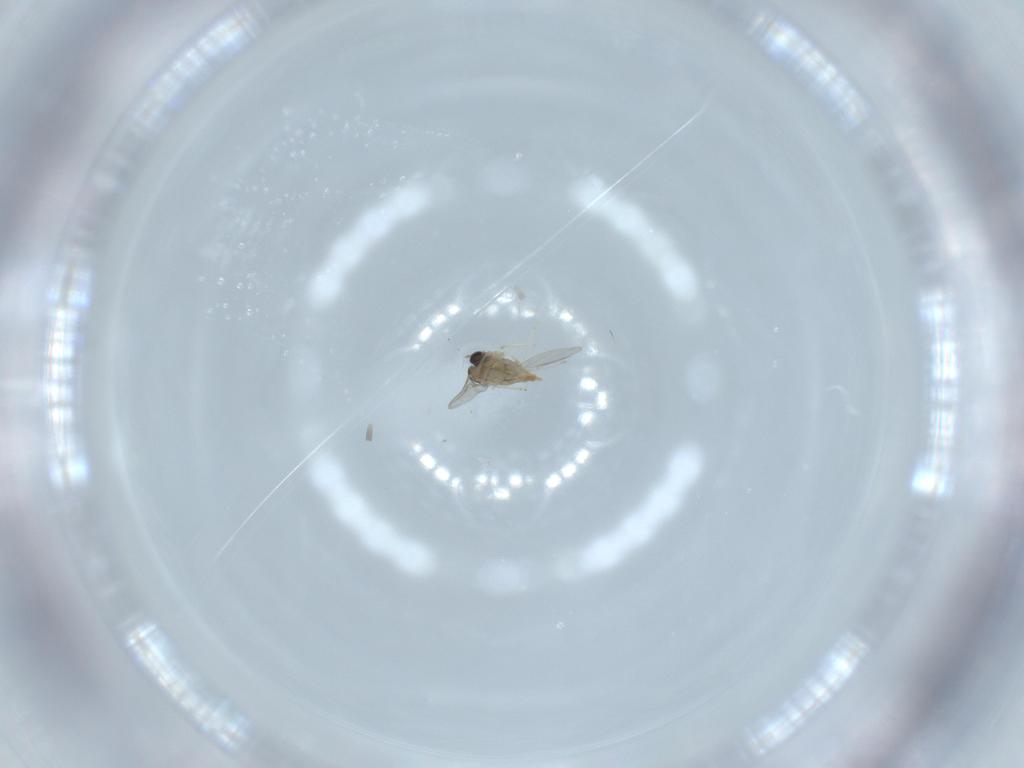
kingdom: Animalia
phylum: Arthropoda
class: Insecta
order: Diptera
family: Cecidomyiidae
